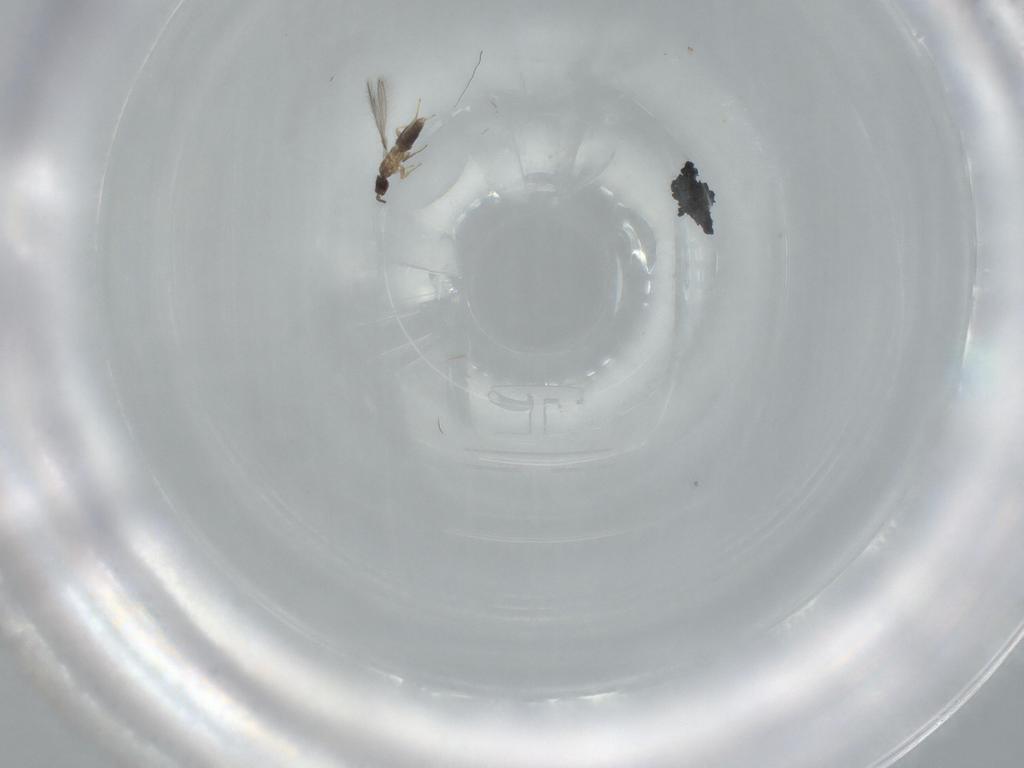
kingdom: Animalia
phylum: Arthropoda
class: Insecta
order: Hymenoptera
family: Mymaridae
